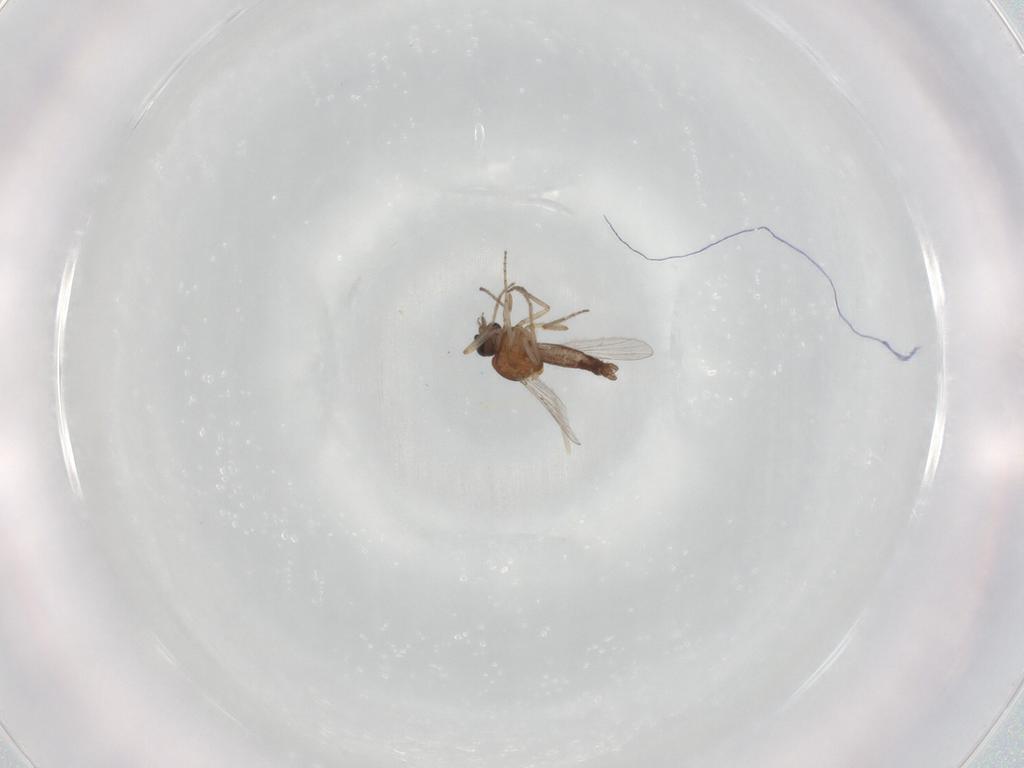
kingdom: Animalia
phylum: Arthropoda
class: Insecta
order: Diptera
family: Ceratopogonidae
